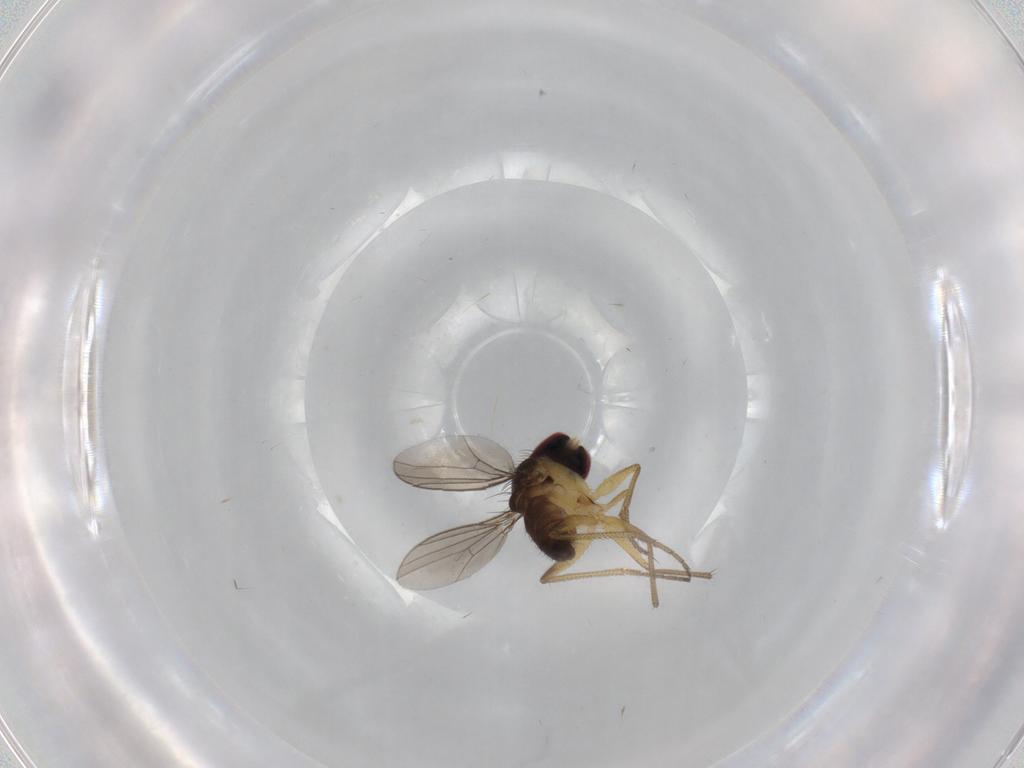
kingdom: Animalia
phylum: Arthropoda
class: Insecta
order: Diptera
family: Dolichopodidae
